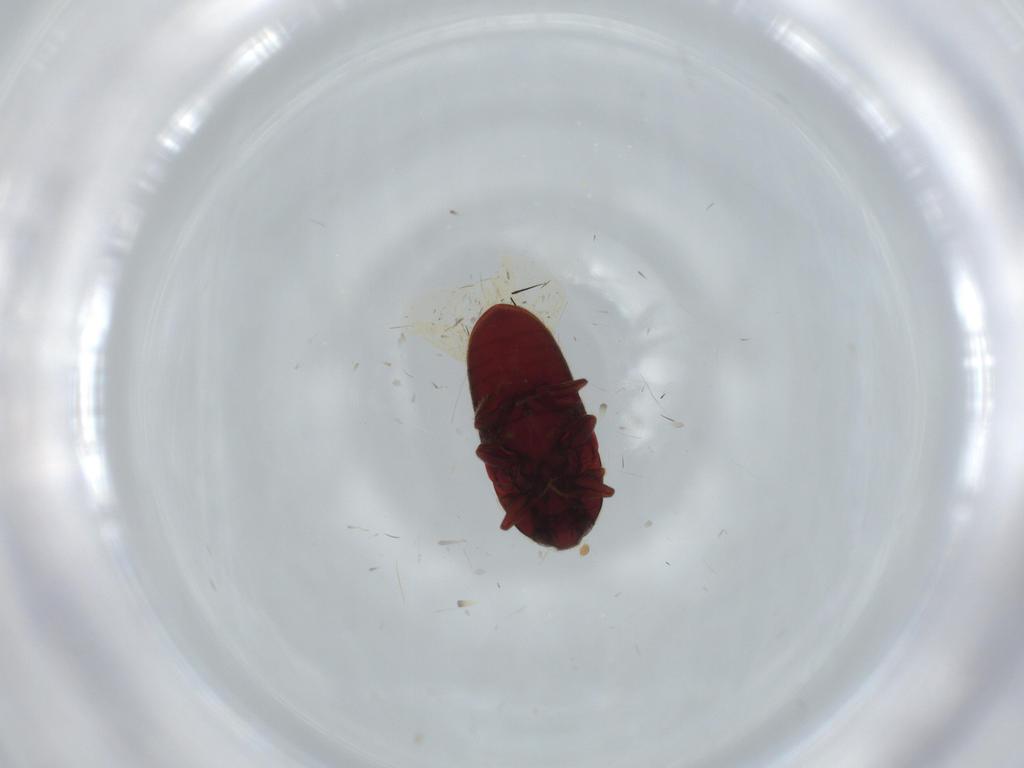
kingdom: Animalia
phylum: Arthropoda
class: Insecta
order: Coleoptera
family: Throscidae
